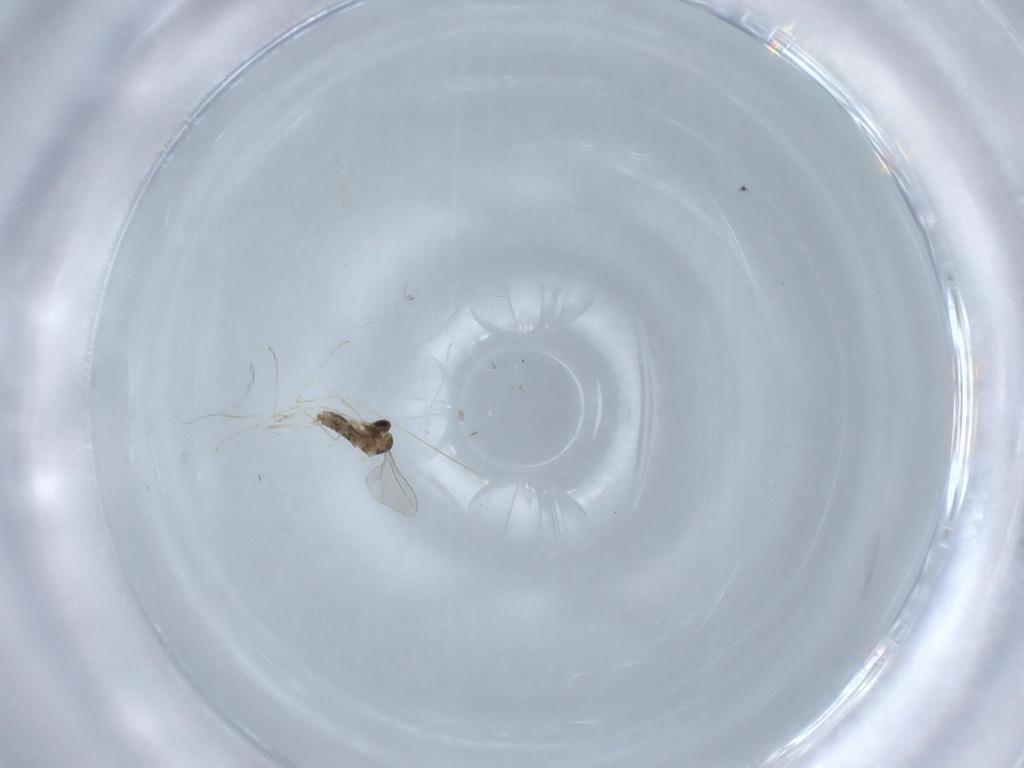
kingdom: Animalia
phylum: Arthropoda
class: Insecta
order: Diptera
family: Cecidomyiidae
